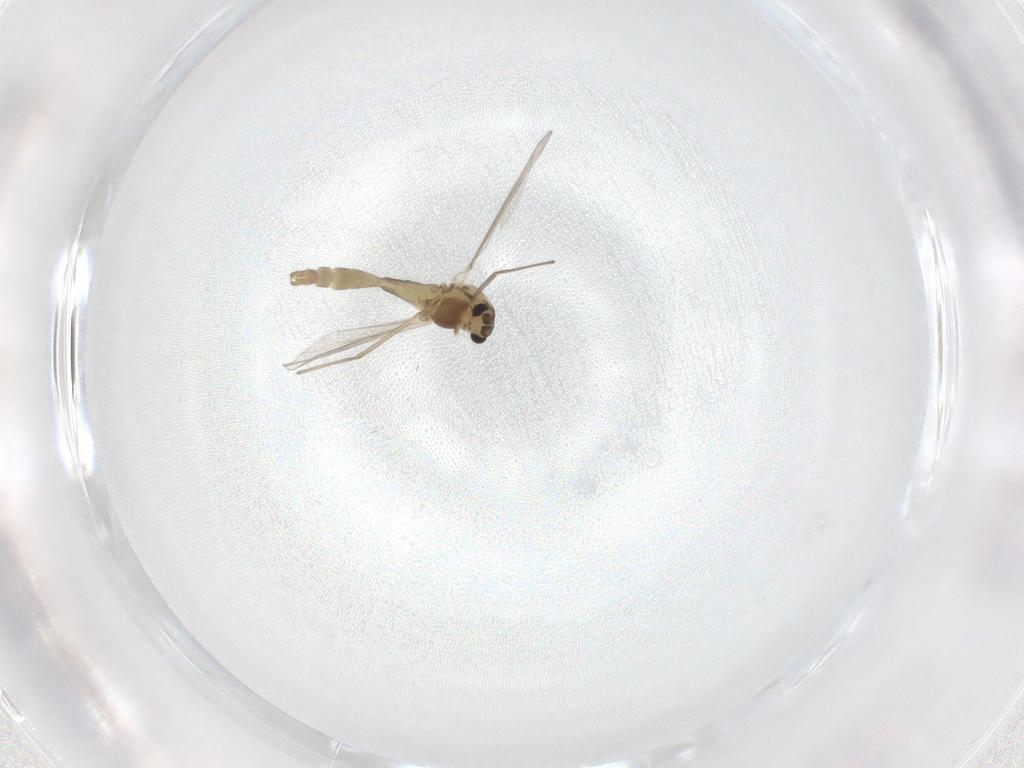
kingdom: Animalia
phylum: Arthropoda
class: Insecta
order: Diptera
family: Chironomidae
